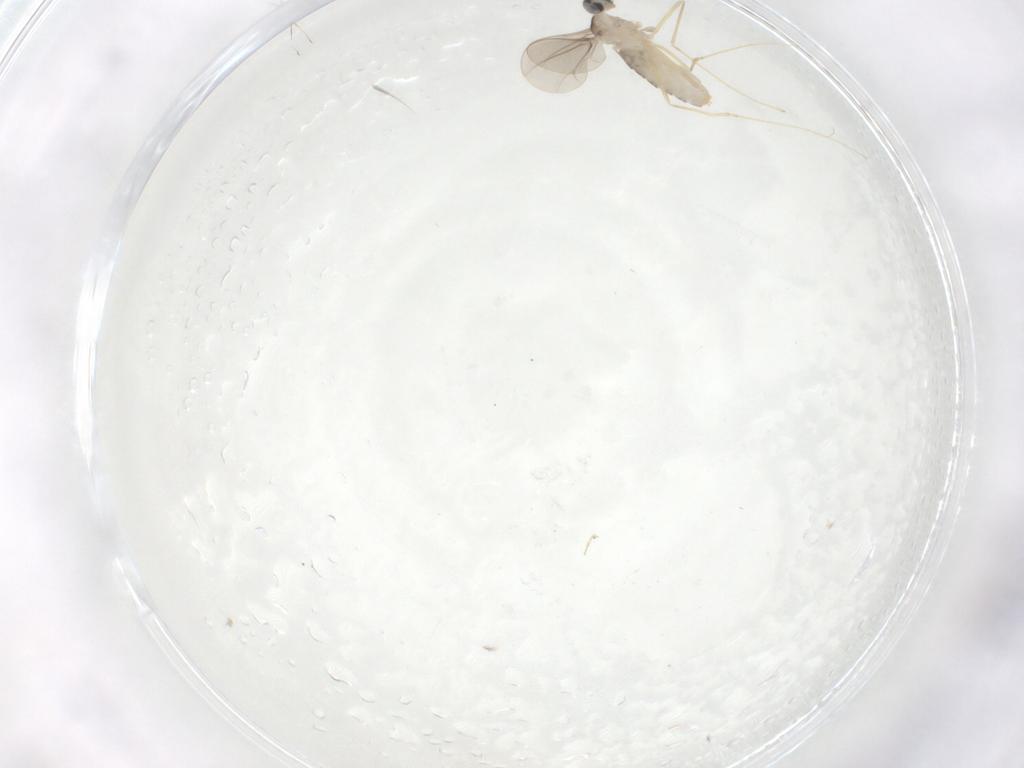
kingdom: Animalia
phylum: Arthropoda
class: Insecta
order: Diptera
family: Cecidomyiidae
